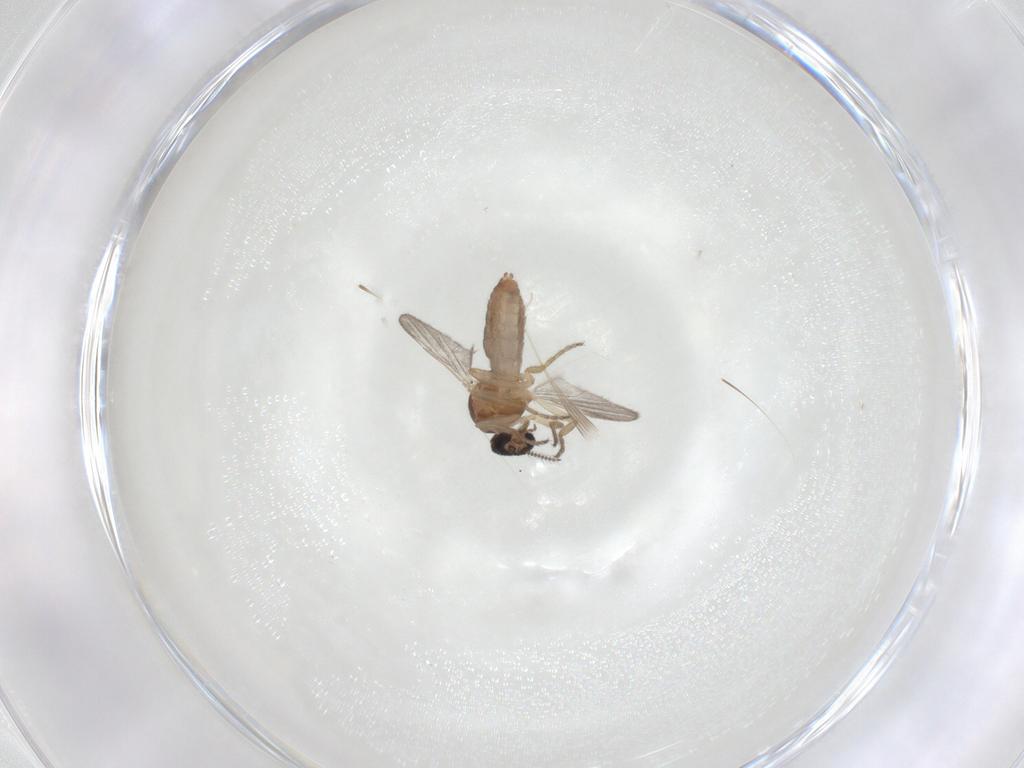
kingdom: Animalia
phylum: Arthropoda
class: Insecta
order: Diptera
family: Ceratopogonidae
